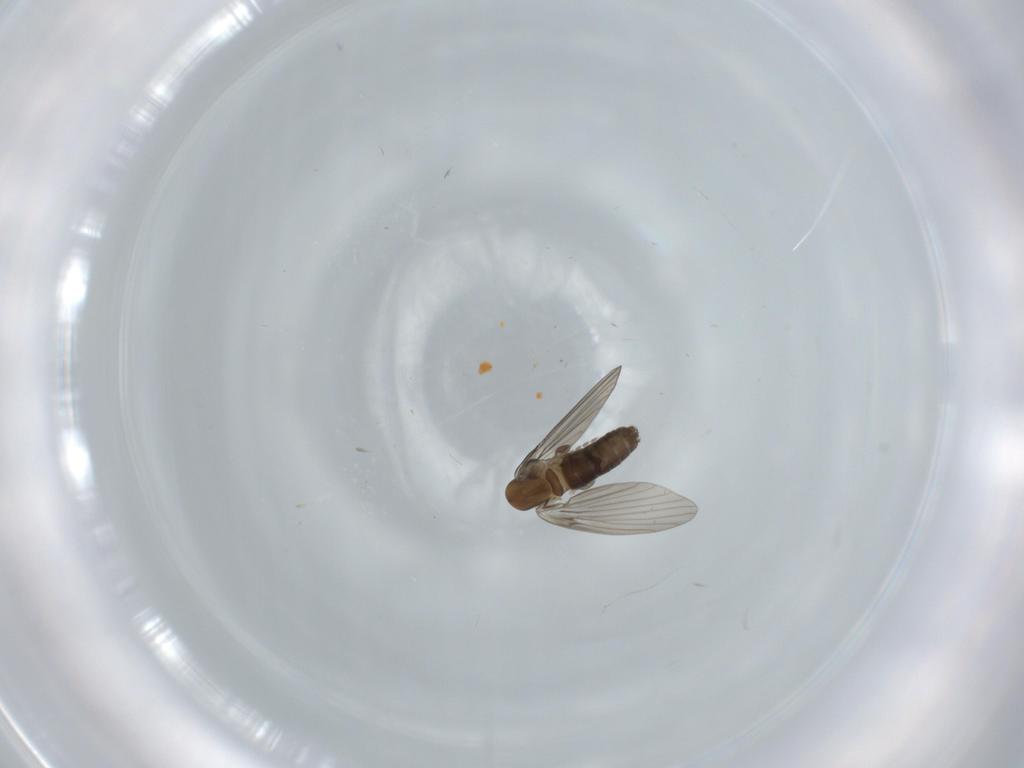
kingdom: Animalia
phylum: Arthropoda
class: Insecta
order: Diptera
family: Psychodidae
